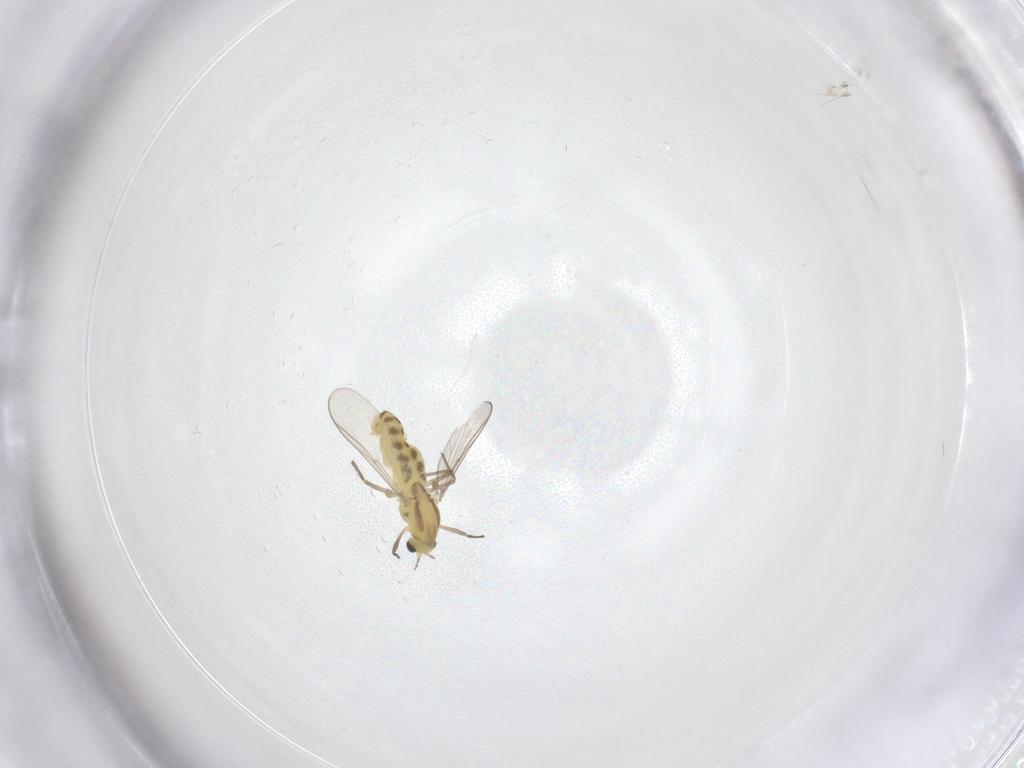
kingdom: Animalia
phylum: Arthropoda
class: Insecta
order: Diptera
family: Chironomidae
